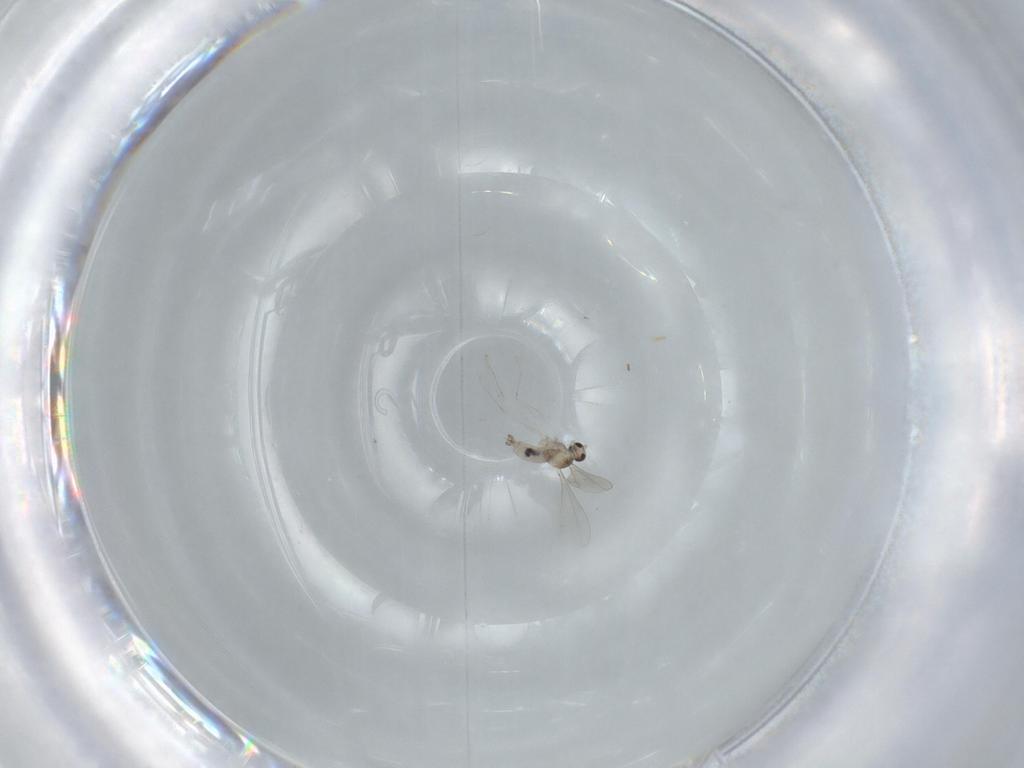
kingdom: Animalia
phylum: Arthropoda
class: Insecta
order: Diptera
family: Cecidomyiidae
